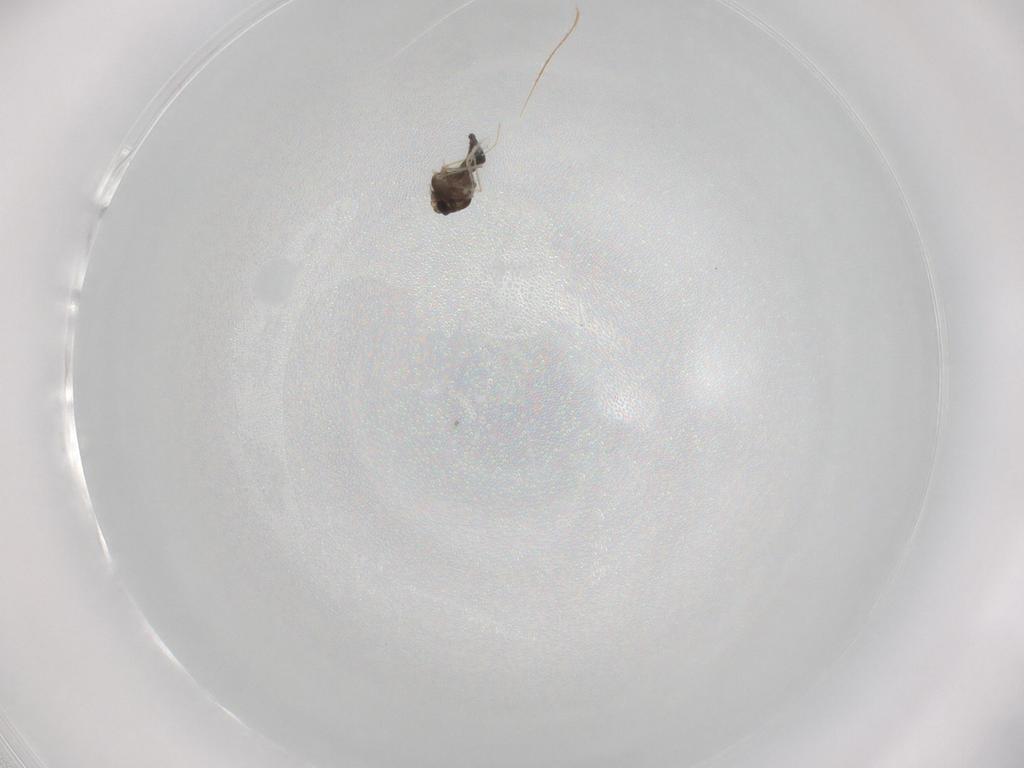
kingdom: Animalia
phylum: Arthropoda
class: Insecta
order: Diptera
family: Chironomidae
